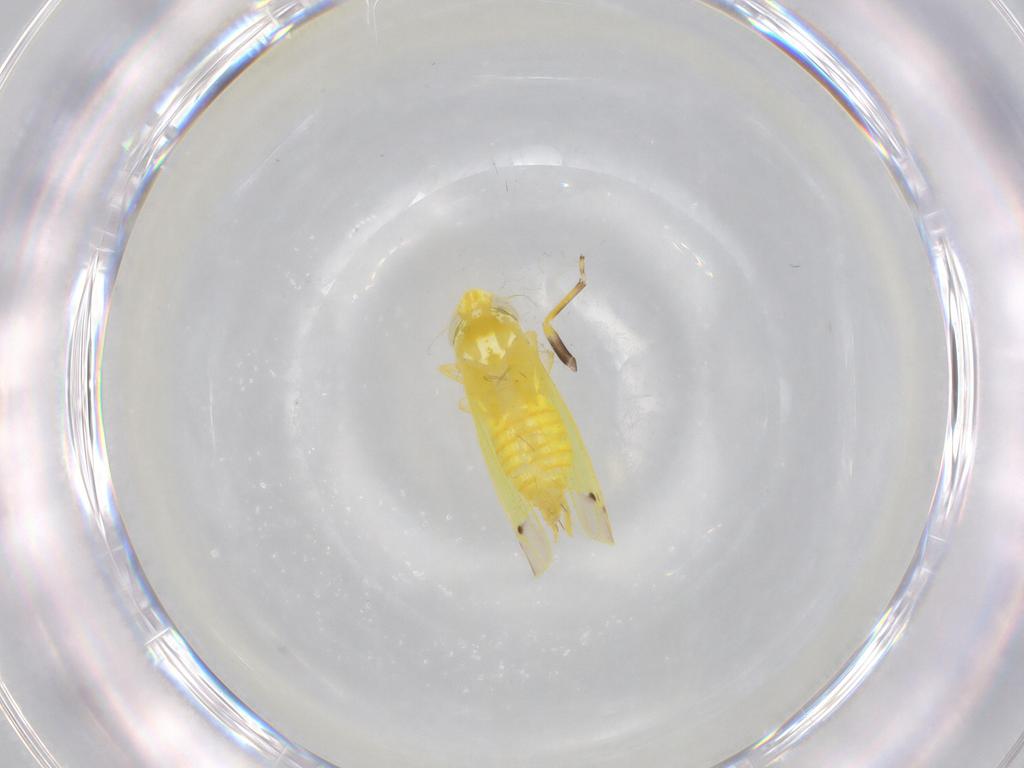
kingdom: Animalia
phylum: Arthropoda
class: Insecta
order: Hemiptera
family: Cicadellidae
